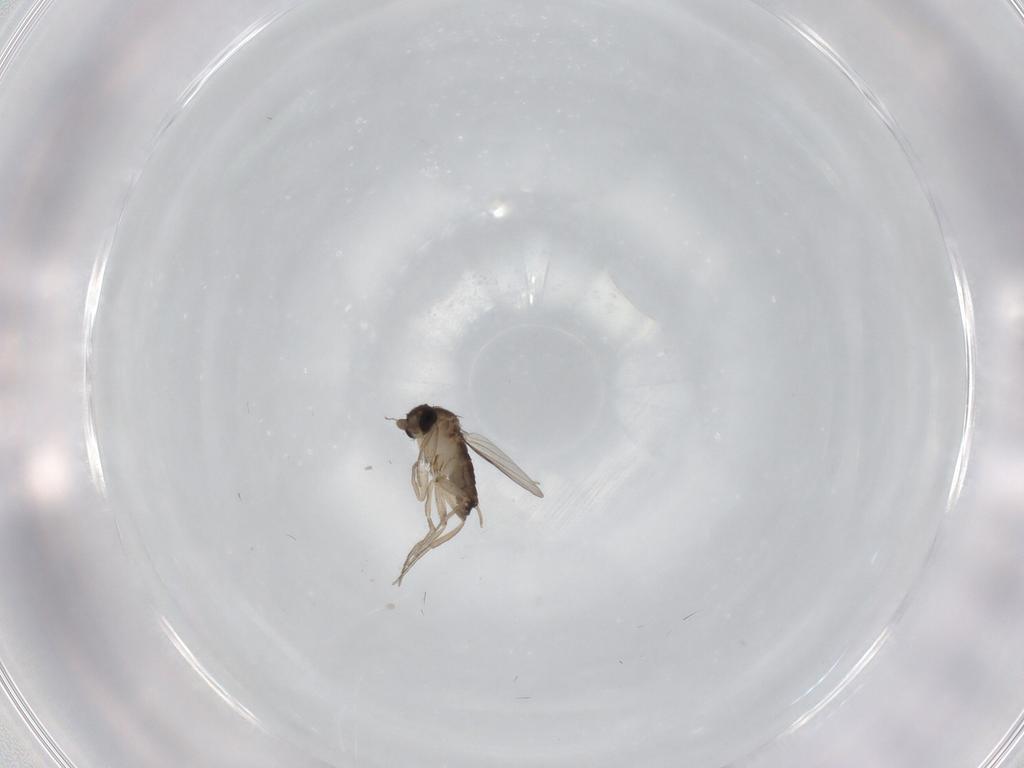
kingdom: Animalia
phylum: Arthropoda
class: Insecta
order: Diptera
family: Phoridae
